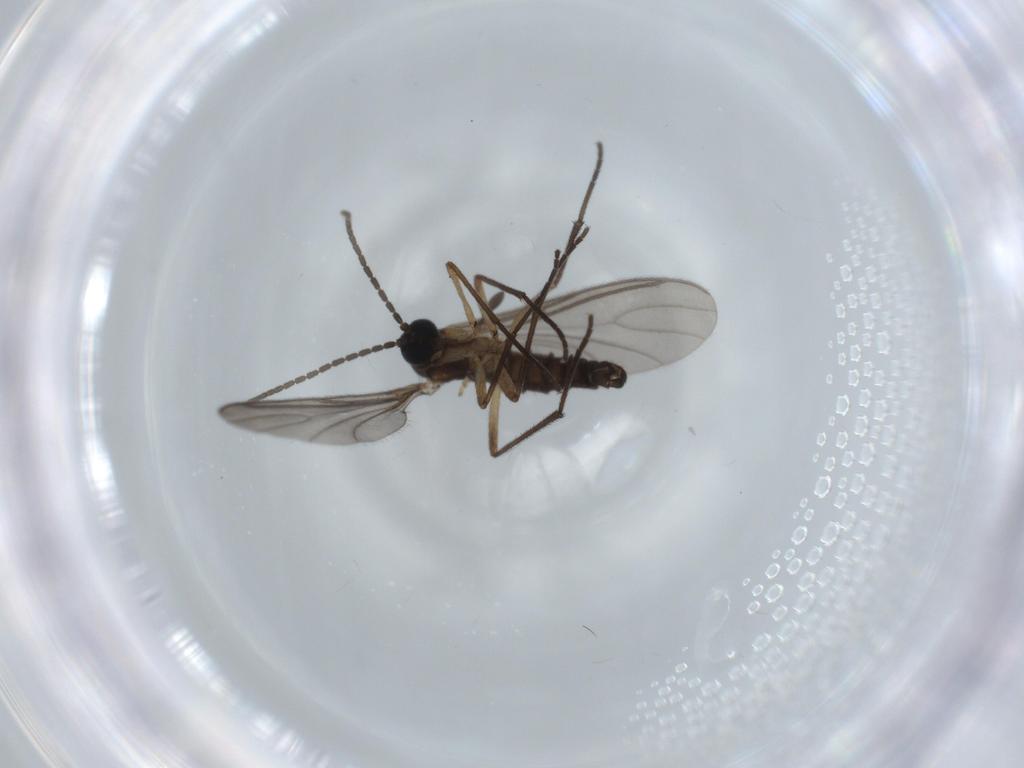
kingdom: Animalia
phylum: Arthropoda
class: Insecta
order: Diptera
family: Sciaridae
